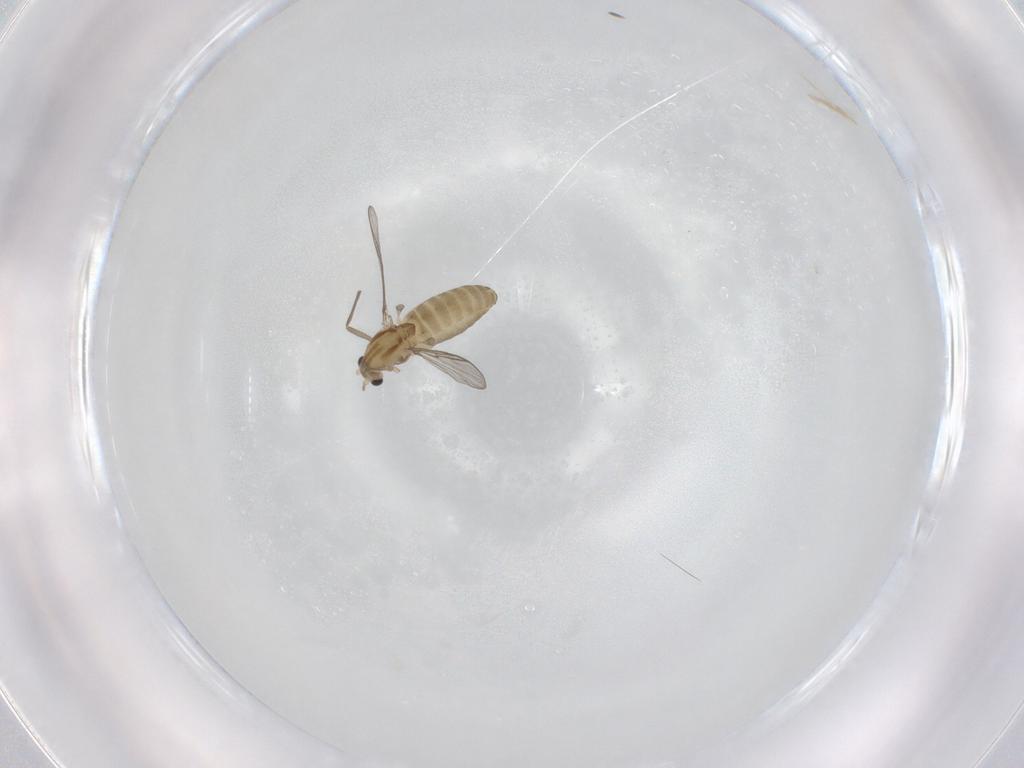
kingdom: Animalia
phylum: Arthropoda
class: Insecta
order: Diptera
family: Chironomidae
